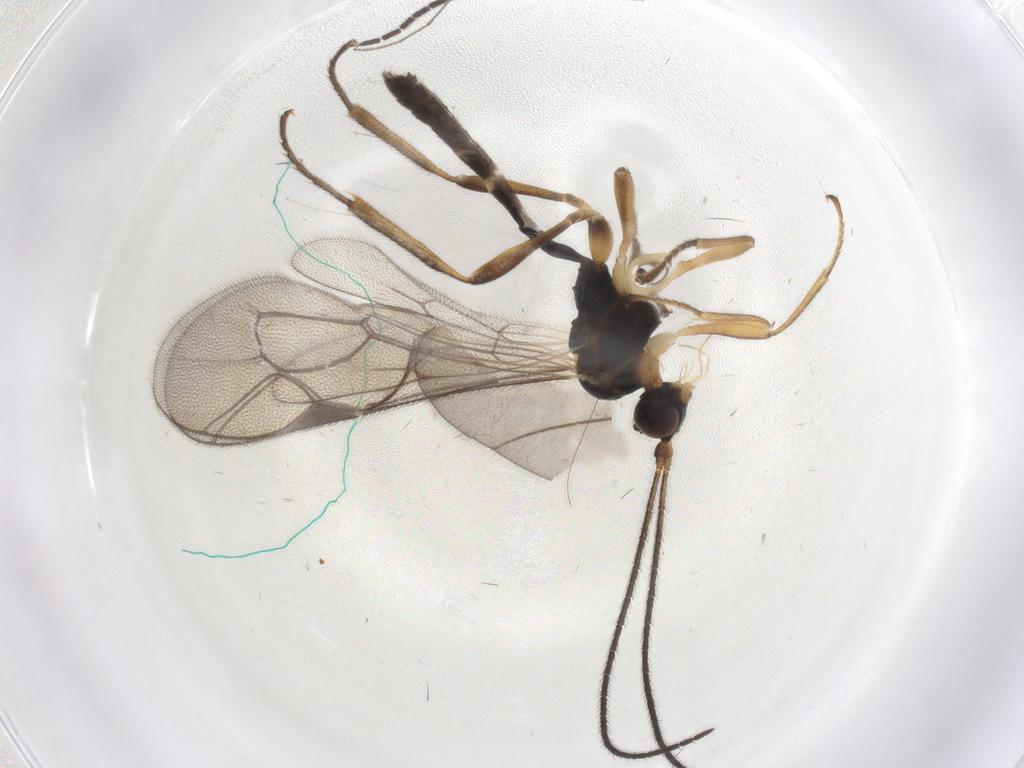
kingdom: Animalia
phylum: Arthropoda
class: Insecta
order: Hymenoptera
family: Ichneumonidae
